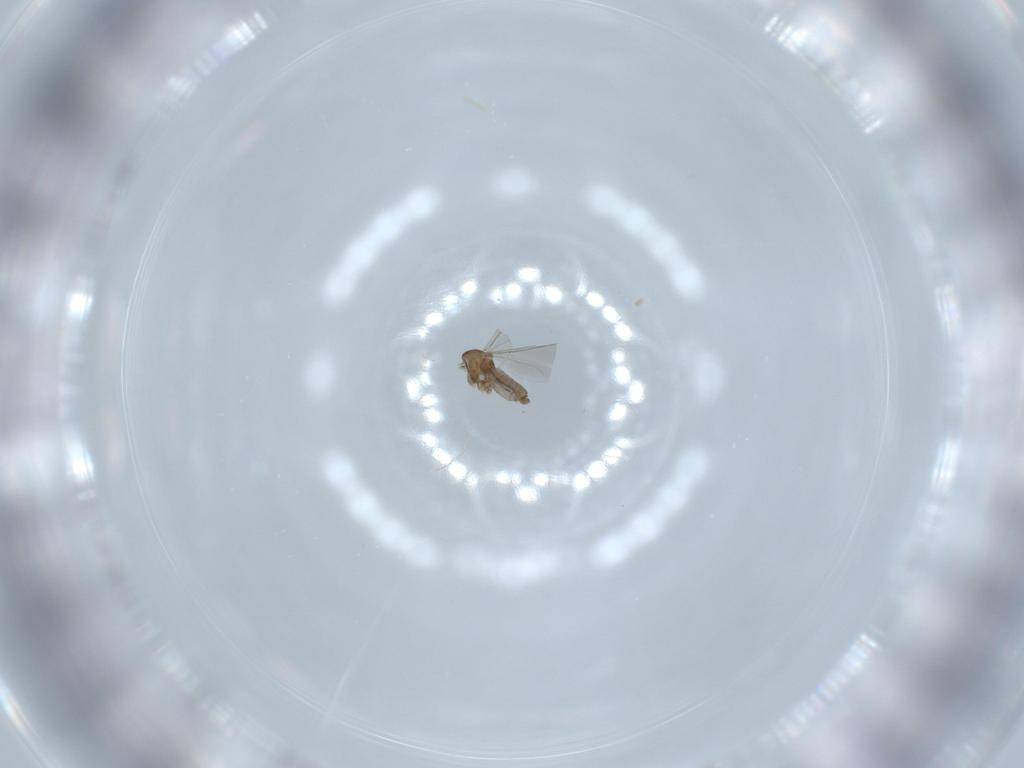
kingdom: Animalia
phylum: Arthropoda
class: Insecta
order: Diptera
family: Cecidomyiidae
